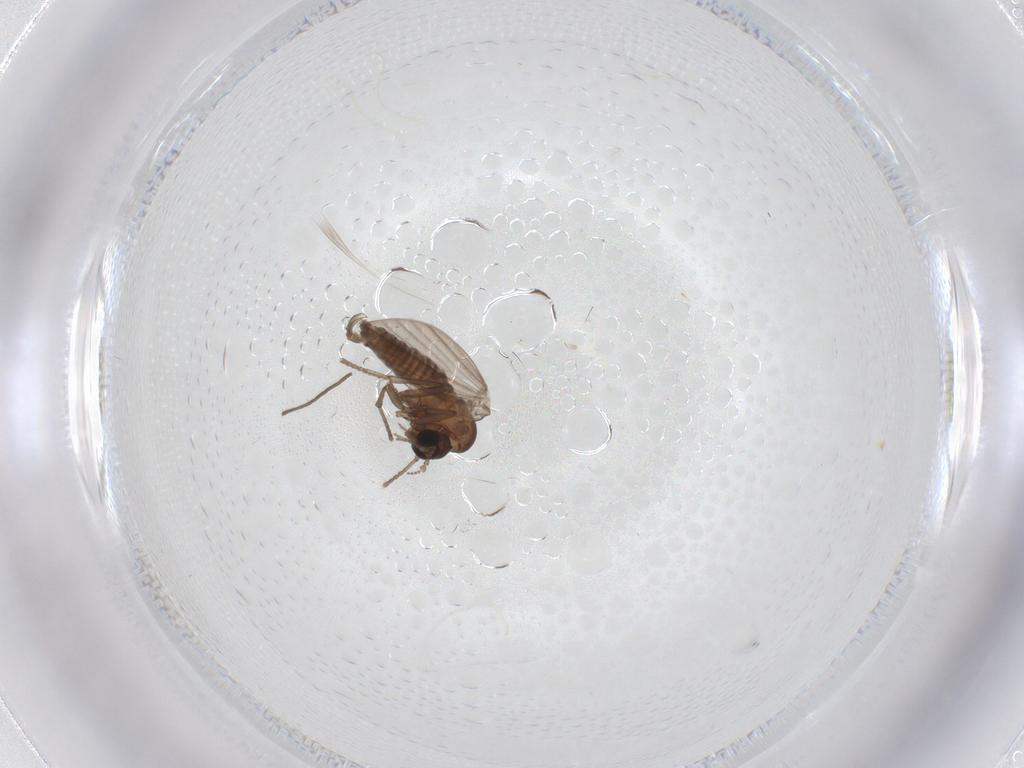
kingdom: Animalia
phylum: Arthropoda
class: Insecta
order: Diptera
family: Psychodidae
